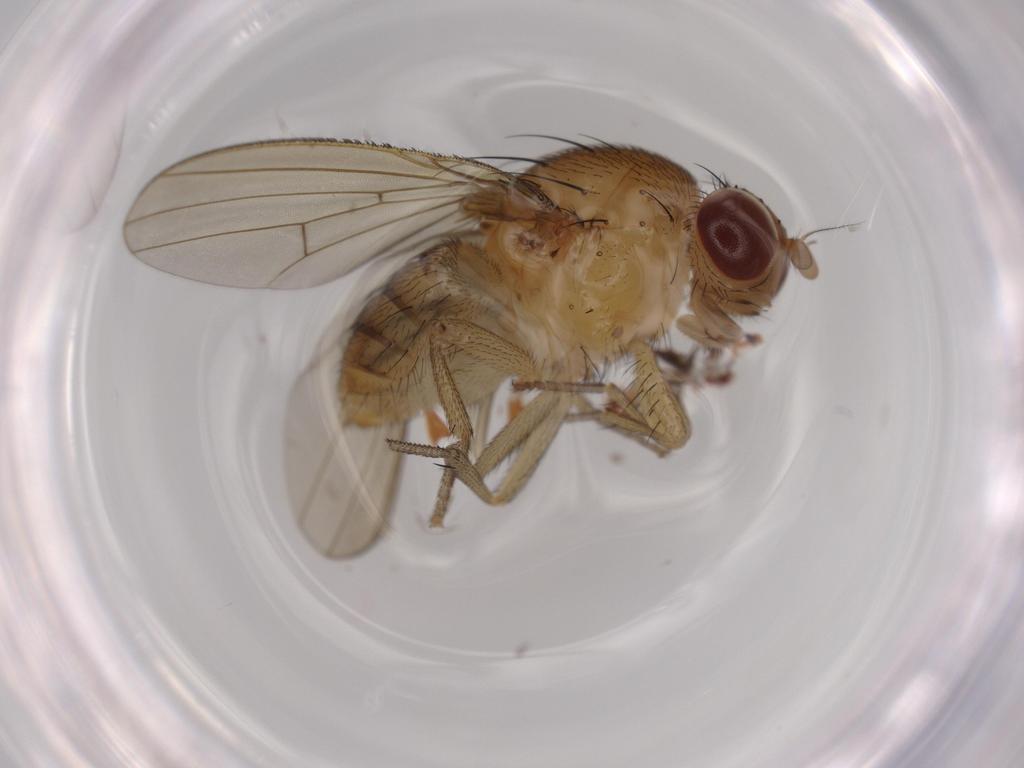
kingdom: Animalia
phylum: Arthropoda
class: Insecta
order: Diptera
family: Dolichopodidae
